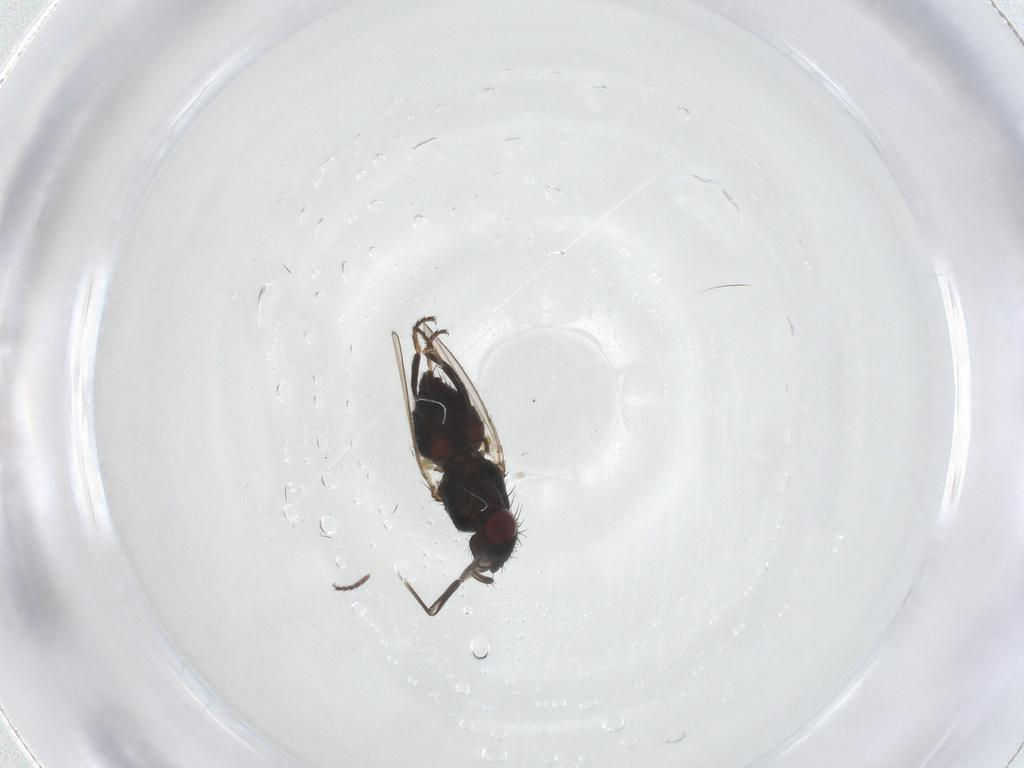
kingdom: Animalia
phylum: Arthropoda
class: Insecta
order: Diptera
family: Milichiidae
